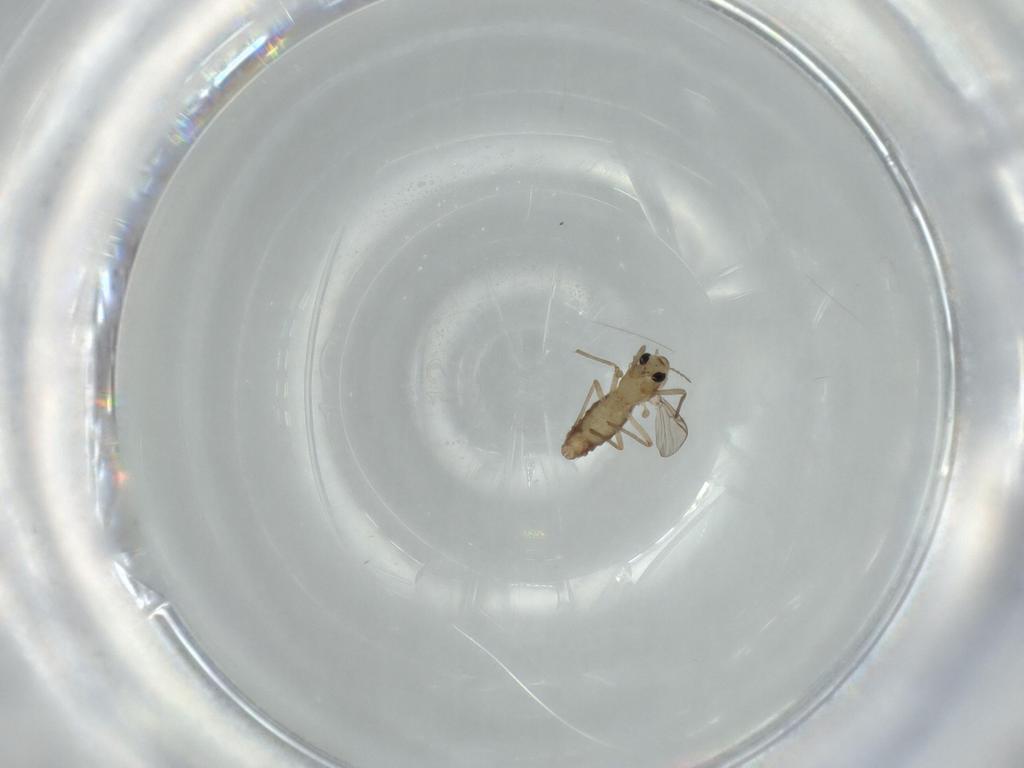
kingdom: Animalia
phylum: Arthropoda
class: Insecta
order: Diptera
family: Chironomidae
